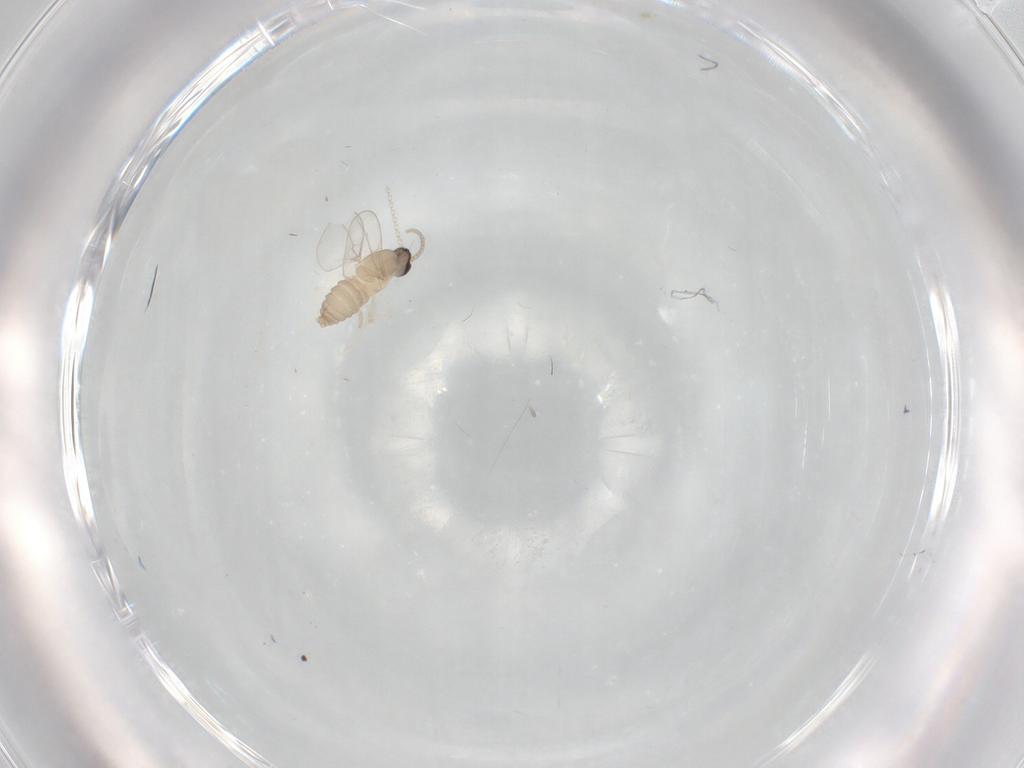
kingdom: Animalia
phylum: Arthropoda
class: Insecta
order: Diptera
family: Cecidomyiidae
